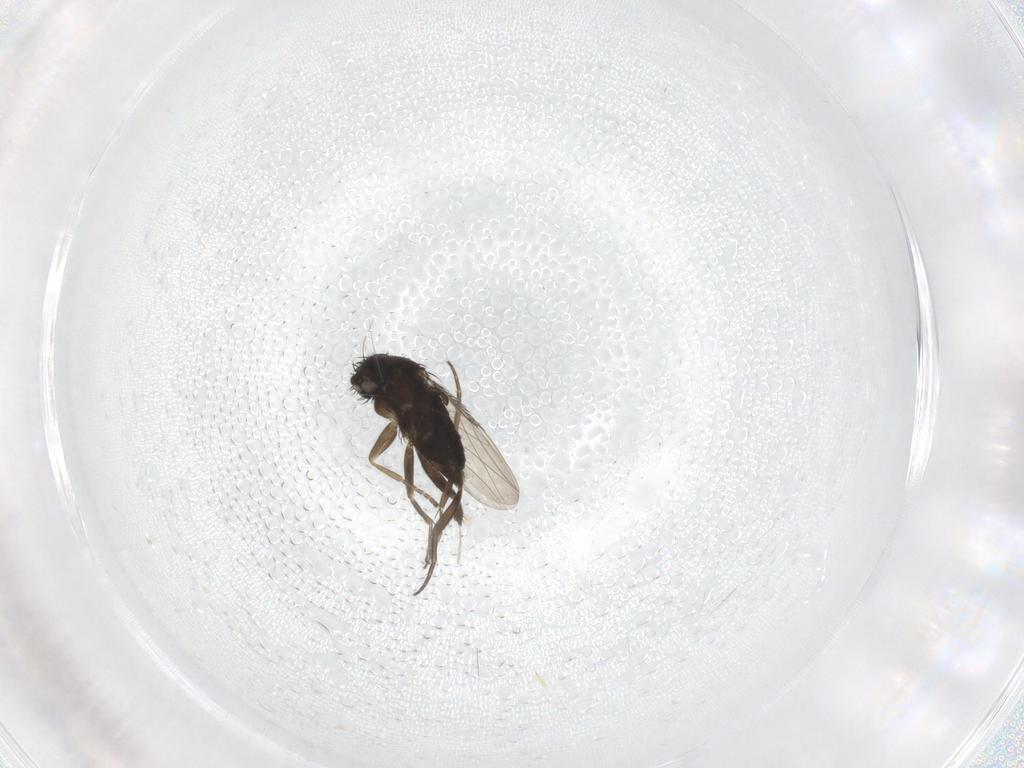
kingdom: Animalia
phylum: Arthropoda
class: Insecta
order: Diptera
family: Phoridae
